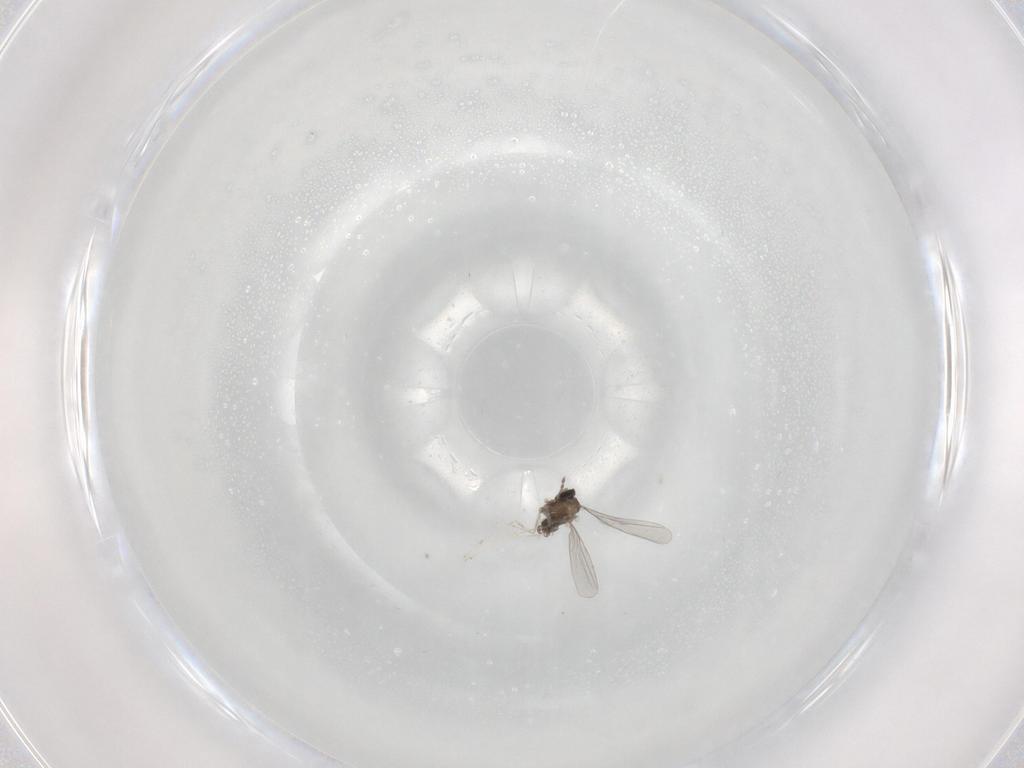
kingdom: Animalia
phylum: Arthropoda
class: Insecta
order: Diptera
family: Cecidomyiidae
